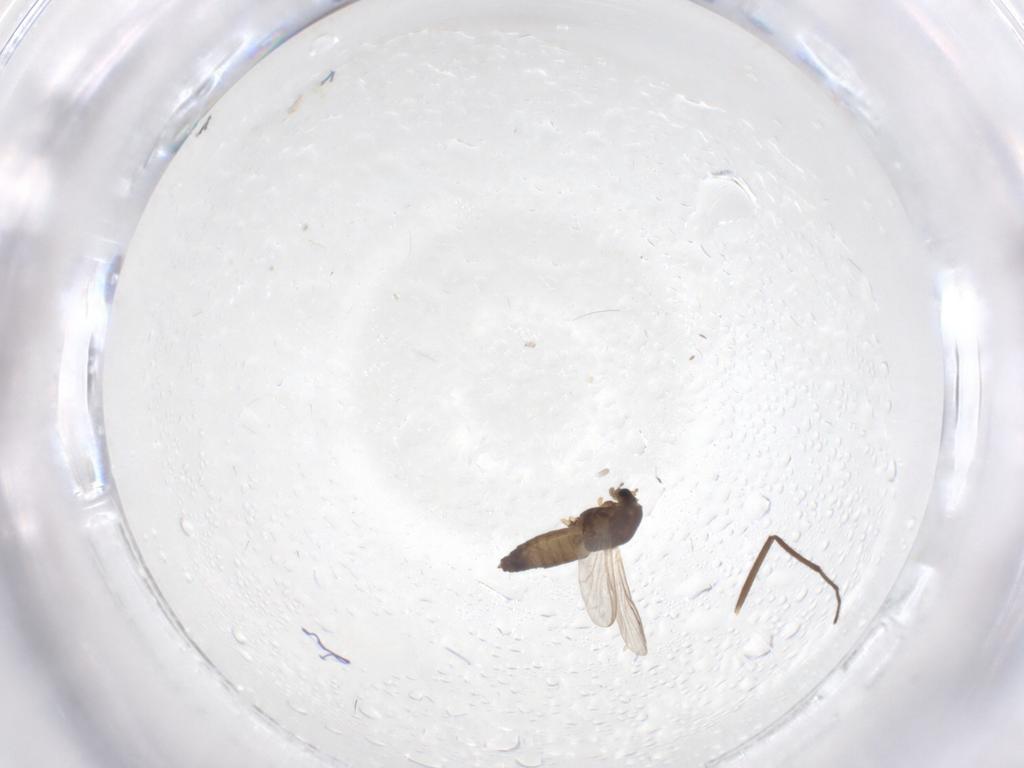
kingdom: Animalia
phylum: Arthropoda
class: Insecta
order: Diptera
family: Chironomidae
